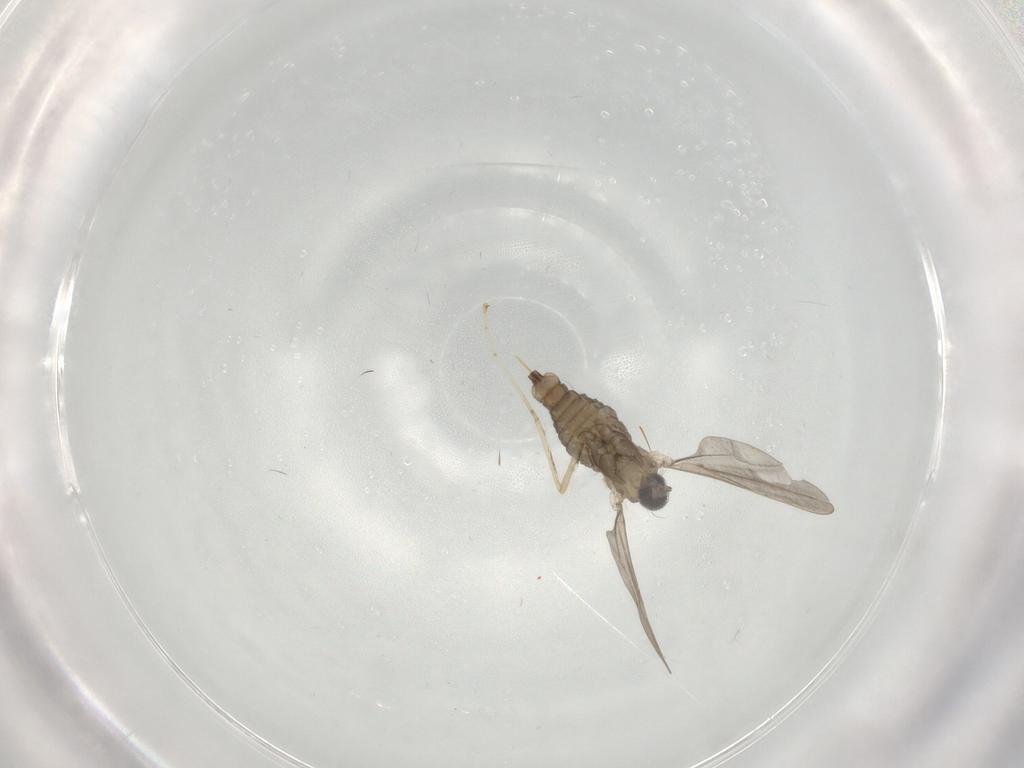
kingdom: Animalia
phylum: Arthropoda
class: Insecta
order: Diptera
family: Cecidomyiidae
